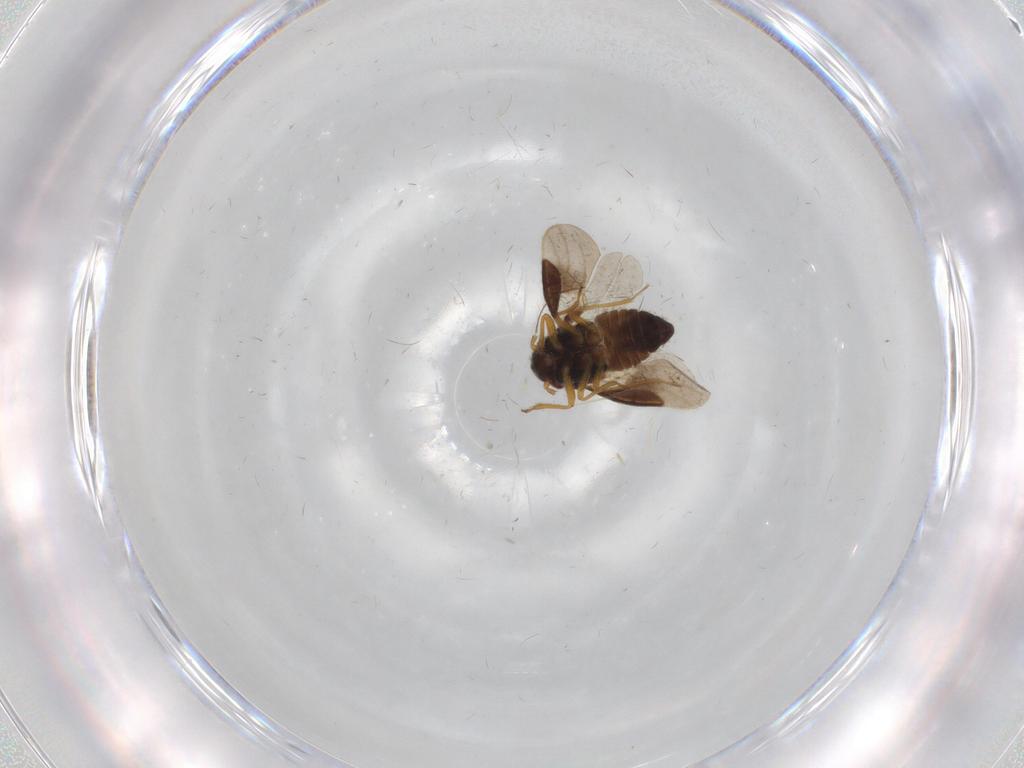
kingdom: Animalia
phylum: Arthropoda
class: Insecta
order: Hemiptera
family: Schizopteridae
